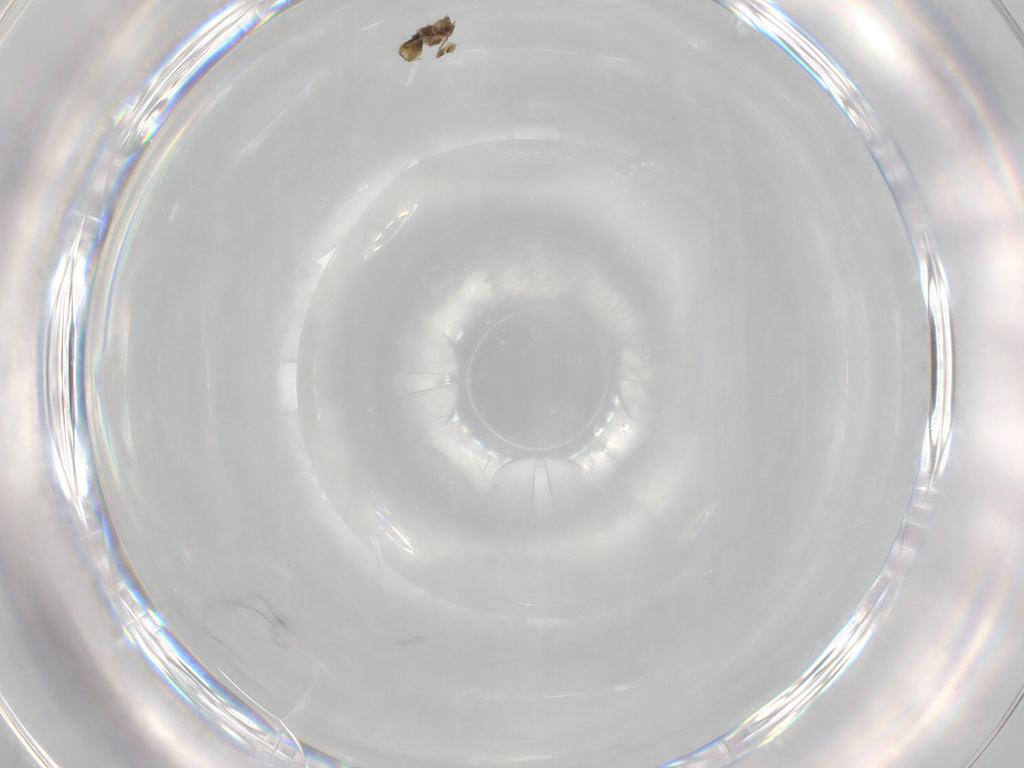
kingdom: Animalia
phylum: Arthropoda
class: Insecta
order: Hymenoptera
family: Mymaridae
